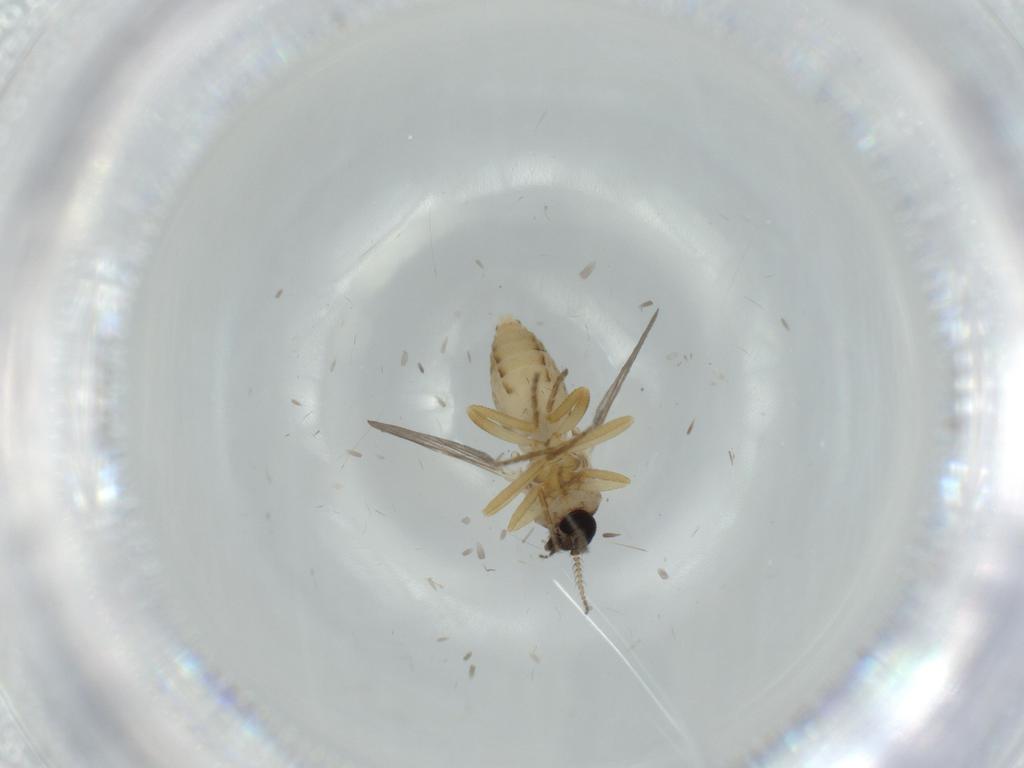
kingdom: Animalia
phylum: Arthropoda
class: Insecta
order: Diptera
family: Ceratopogonidae
